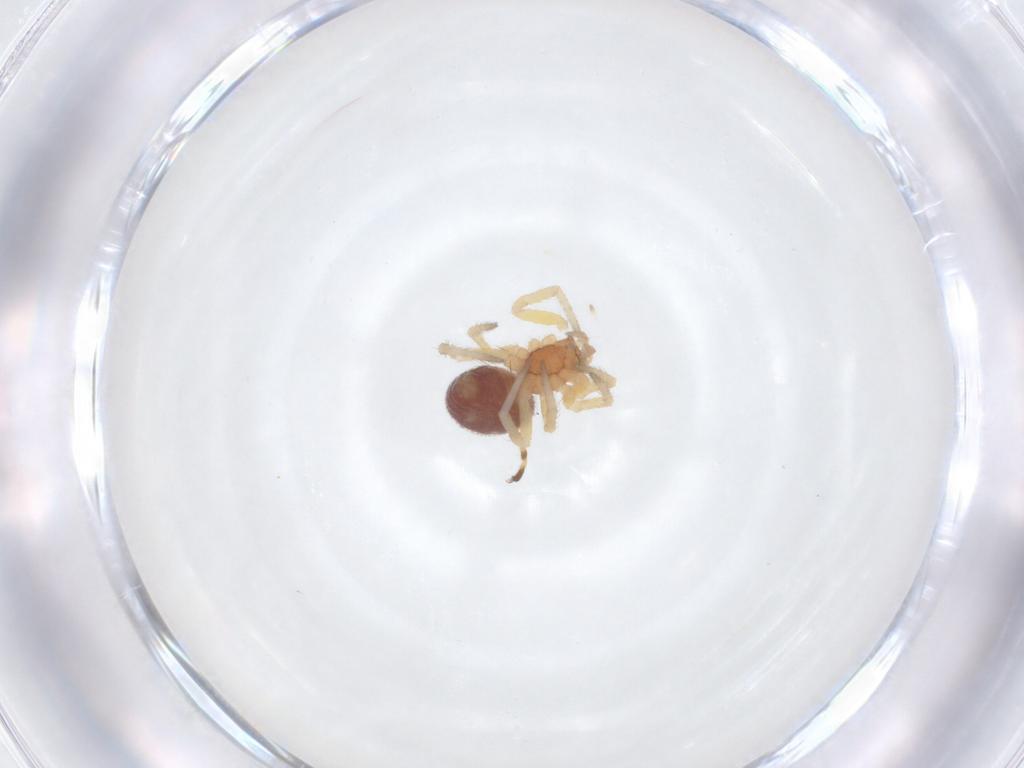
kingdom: Animalia
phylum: Arthropoda
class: Arachnida
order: Araneae
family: Theridiidae
